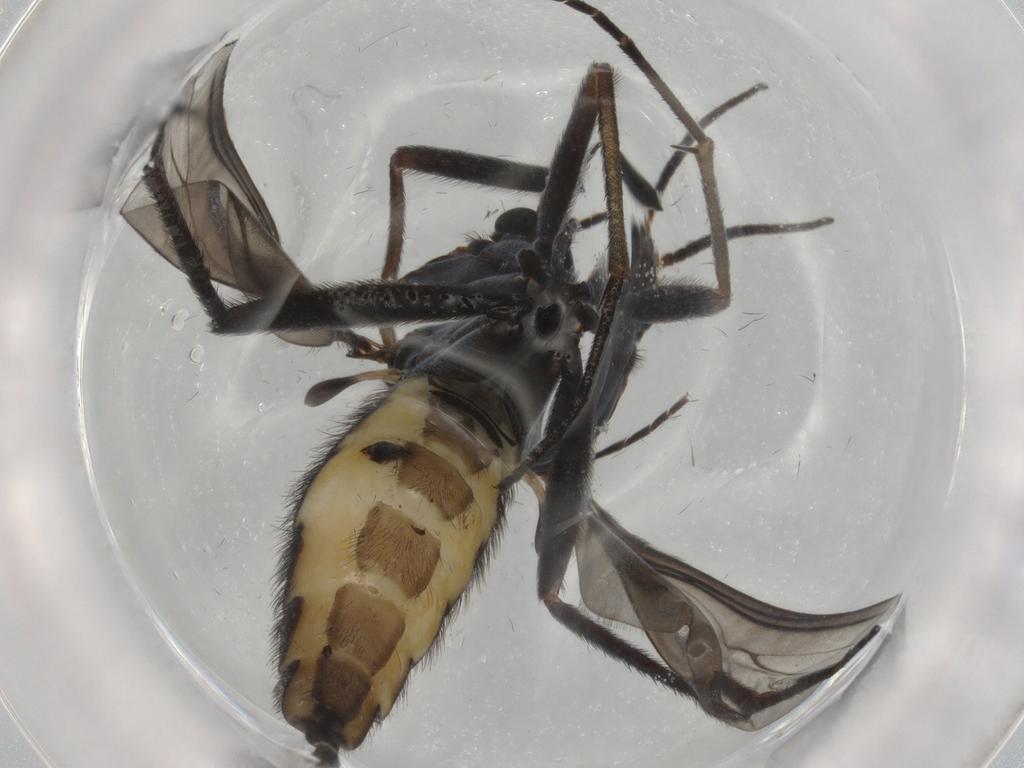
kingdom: Animalia
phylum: Arthropoda
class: Insecta
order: Diptera
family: Sciaridae
